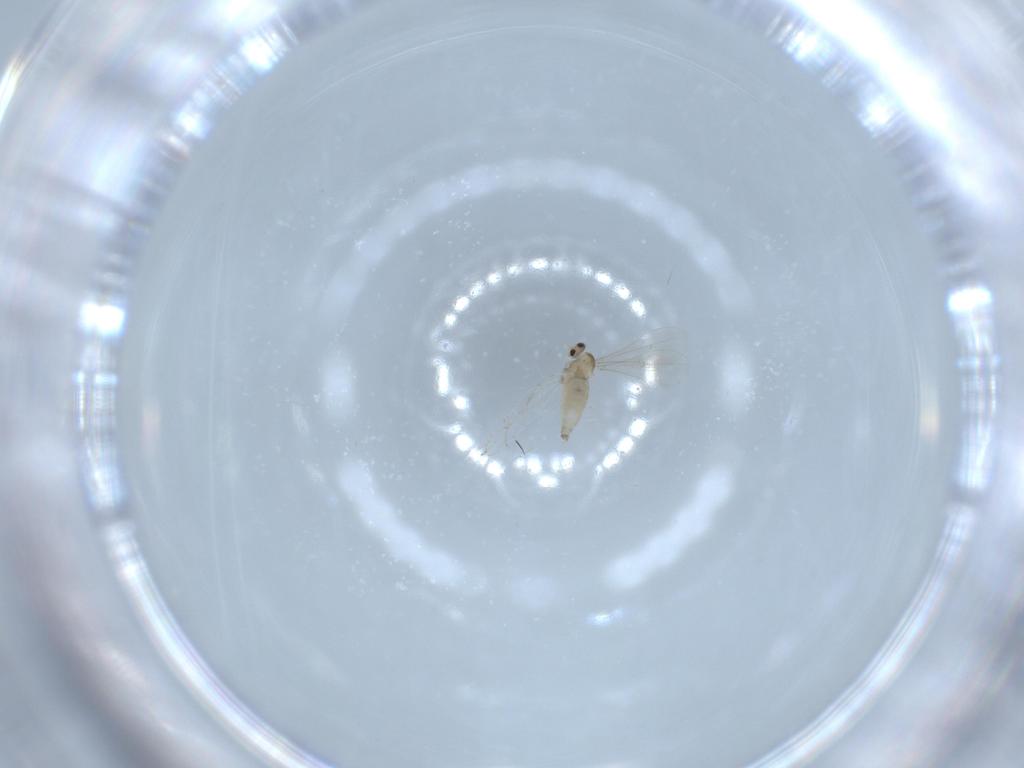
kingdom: Animalia
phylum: Arthropoda
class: Insecta
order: Diptera
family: Cecidomyiidae
